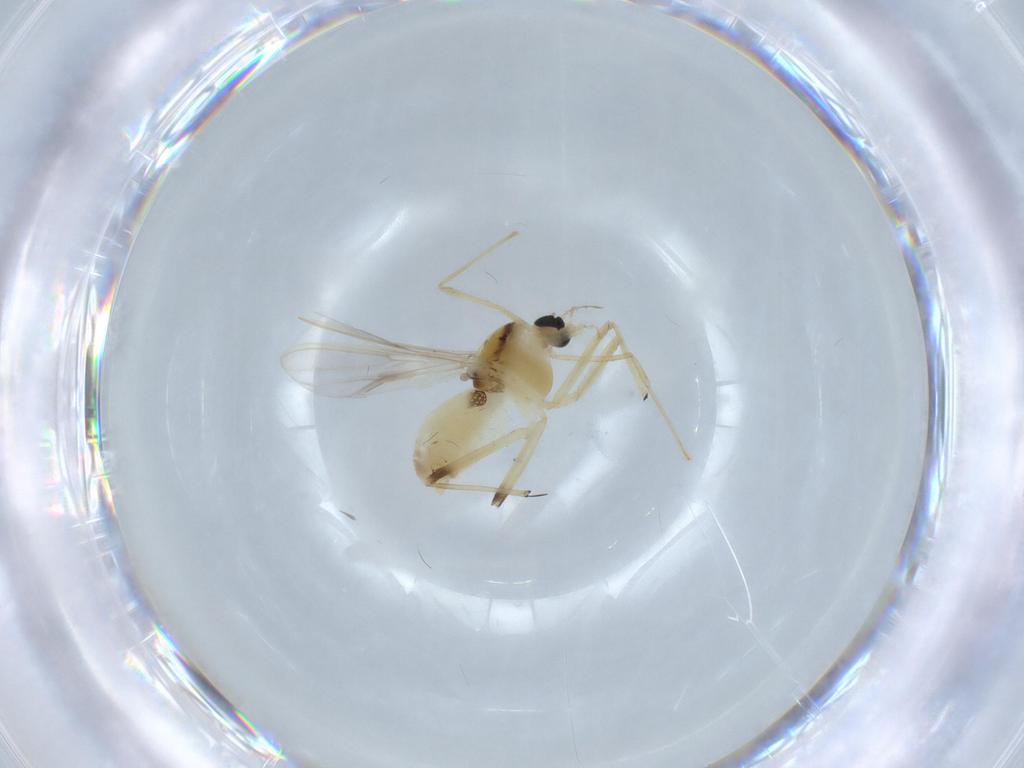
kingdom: Animalia
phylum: Arthropoda
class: Insecta
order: Diptera
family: Chironomidae
